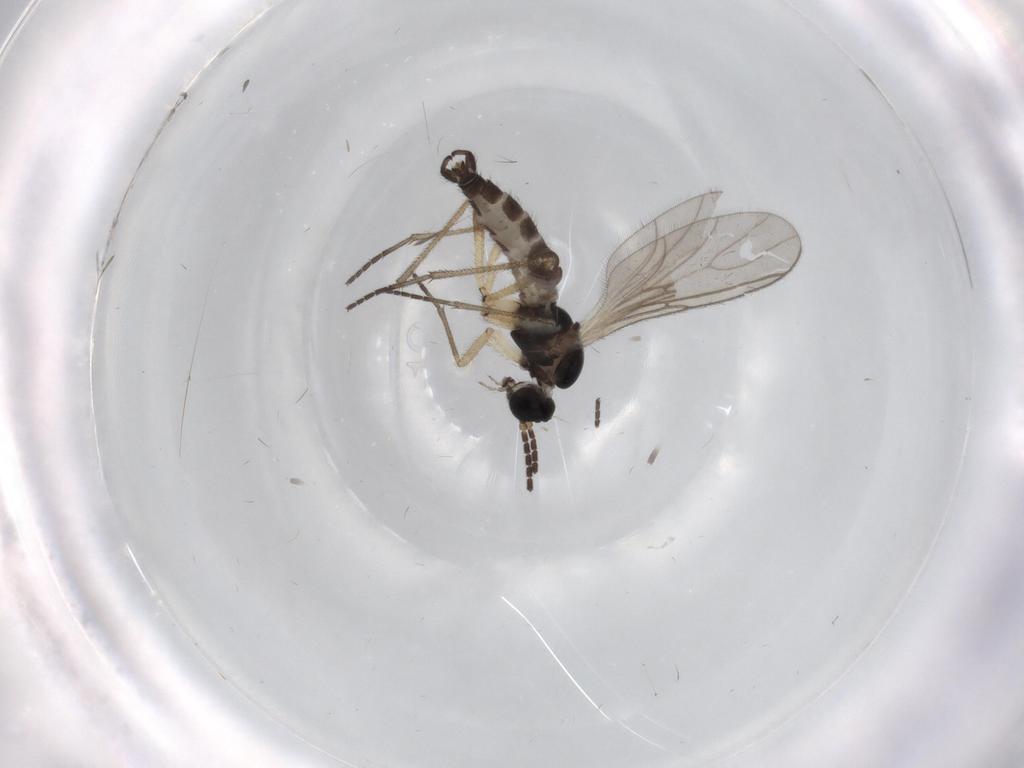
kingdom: Animalia
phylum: Arthropoda
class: Insecta
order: Diptera
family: Sciaridae
